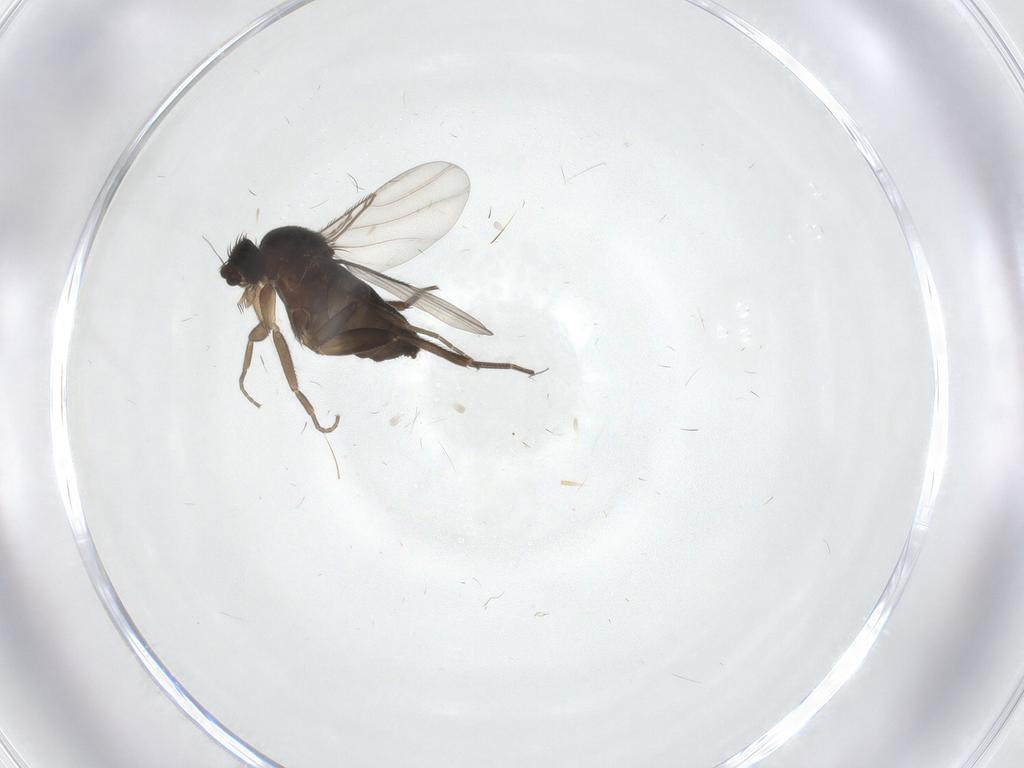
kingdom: Animalia
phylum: Arthropoda
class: Insecta
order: Diptera
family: Phoridae
